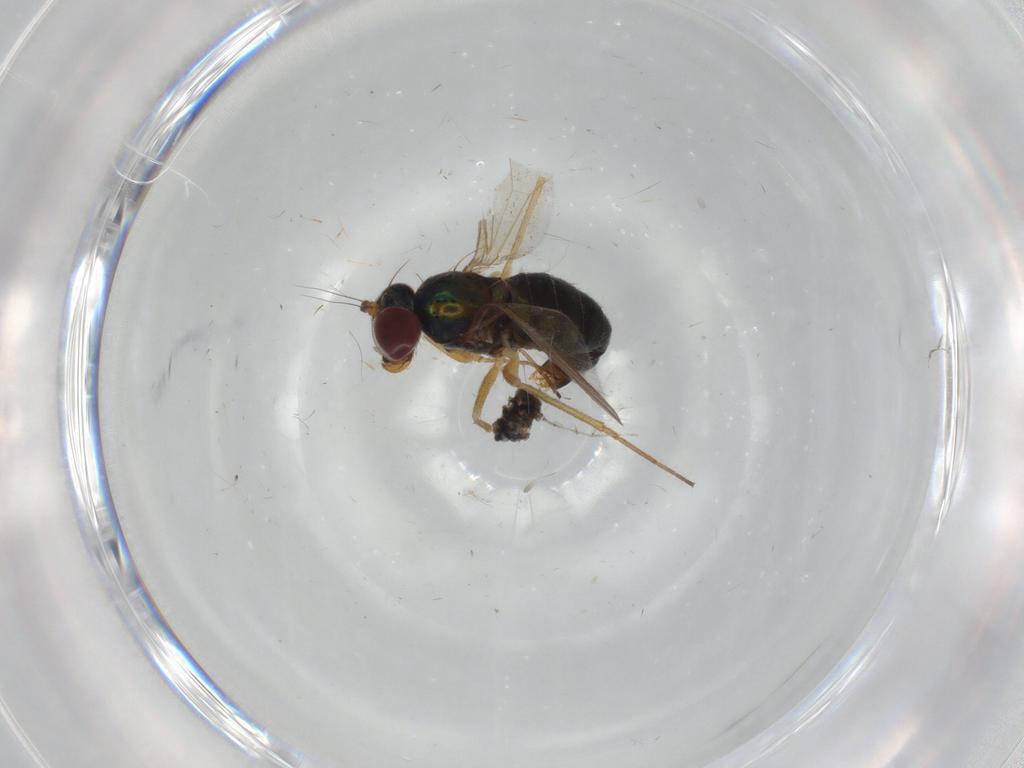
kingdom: Animalia
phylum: Arthropoda
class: Insecta
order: Diptera
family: Dolichopodidae
